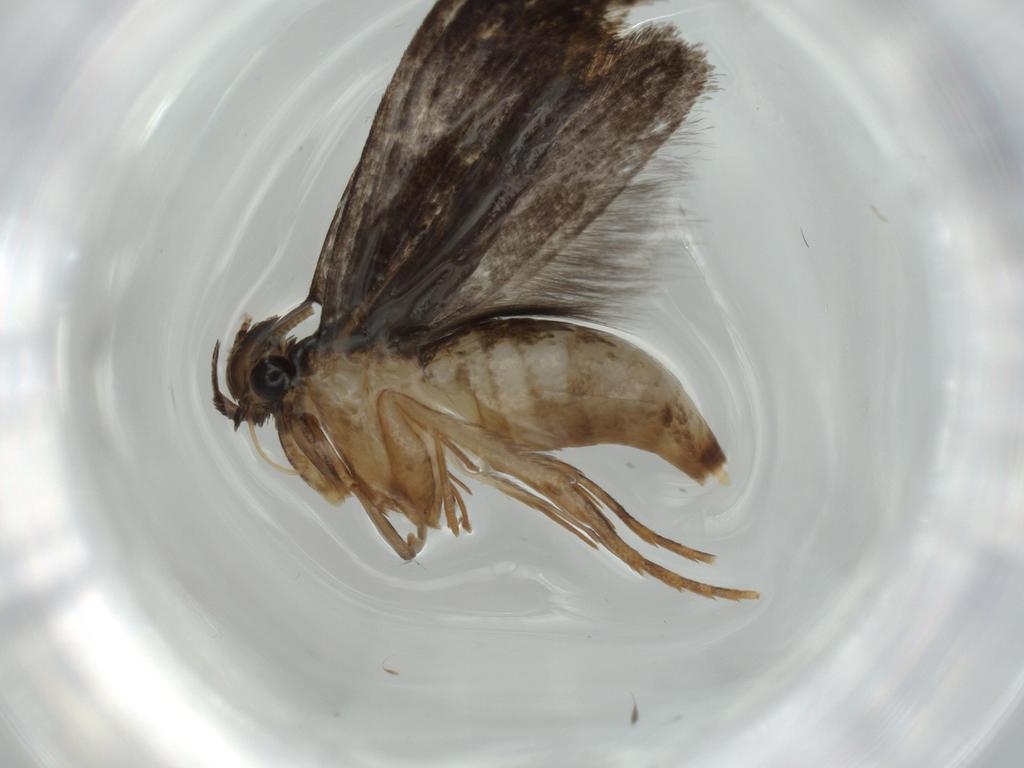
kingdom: Animalia
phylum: Arthropoda
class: Insecta
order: Lepidoptera
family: Gelechiidae
